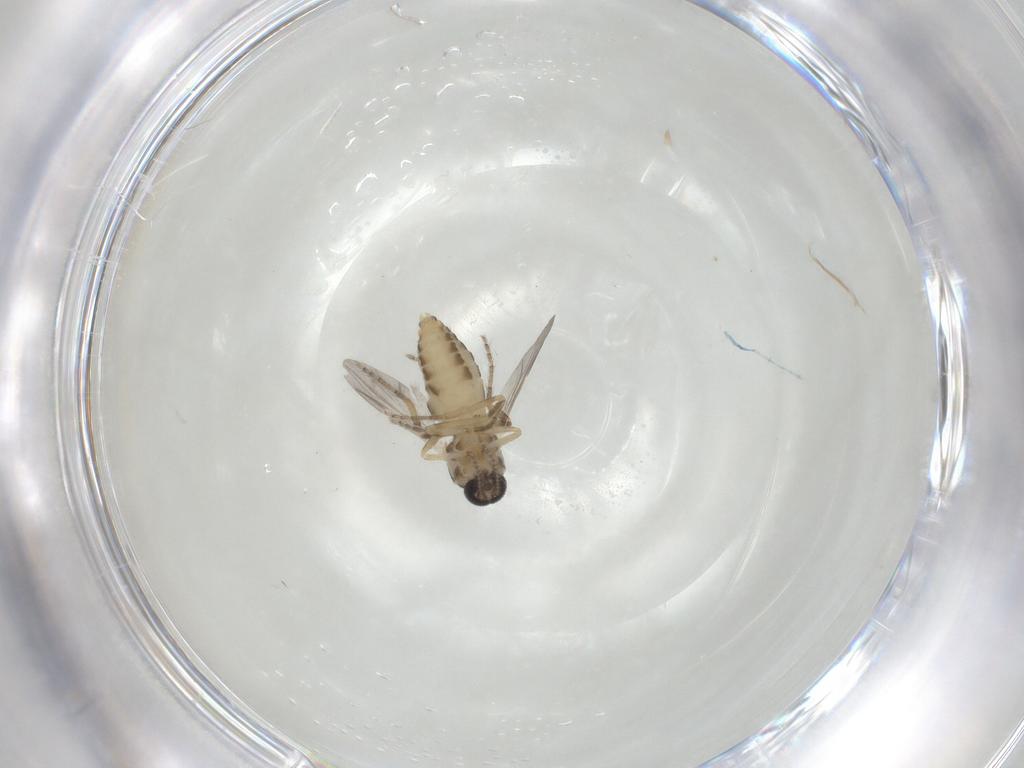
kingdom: Animalia
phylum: Arthropoda
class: Insecta
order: Diptera
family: Ceratopogonidae
